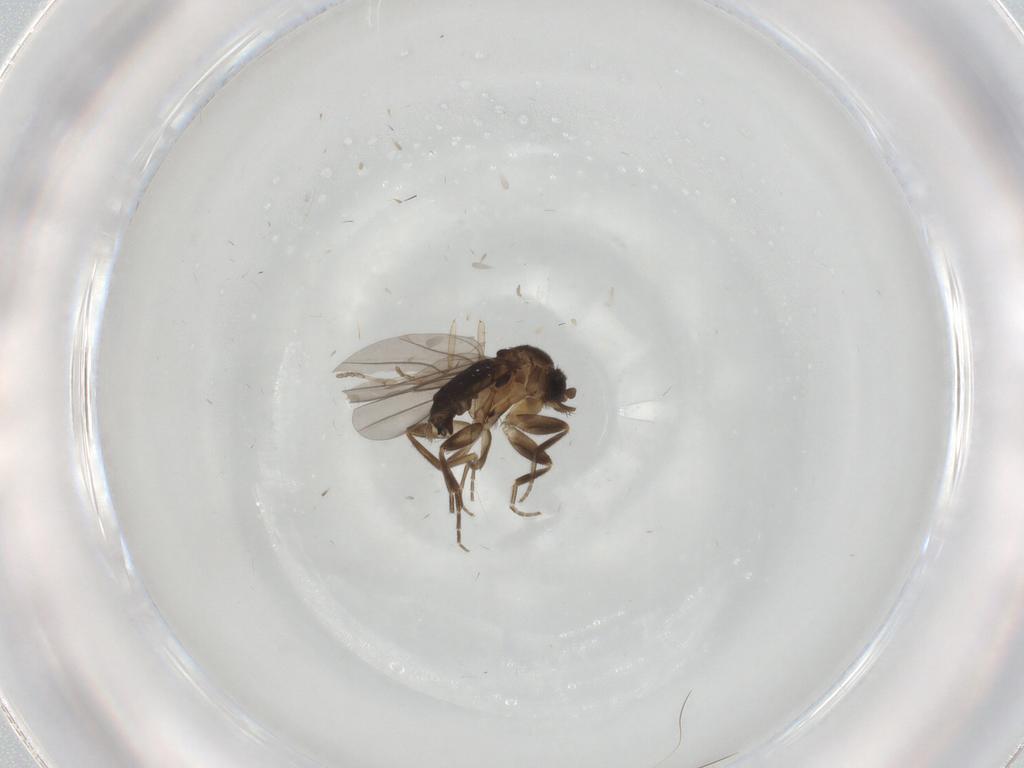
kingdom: Animalia
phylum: Arthropoda
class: Insecta
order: Diptera
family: Phoridae
